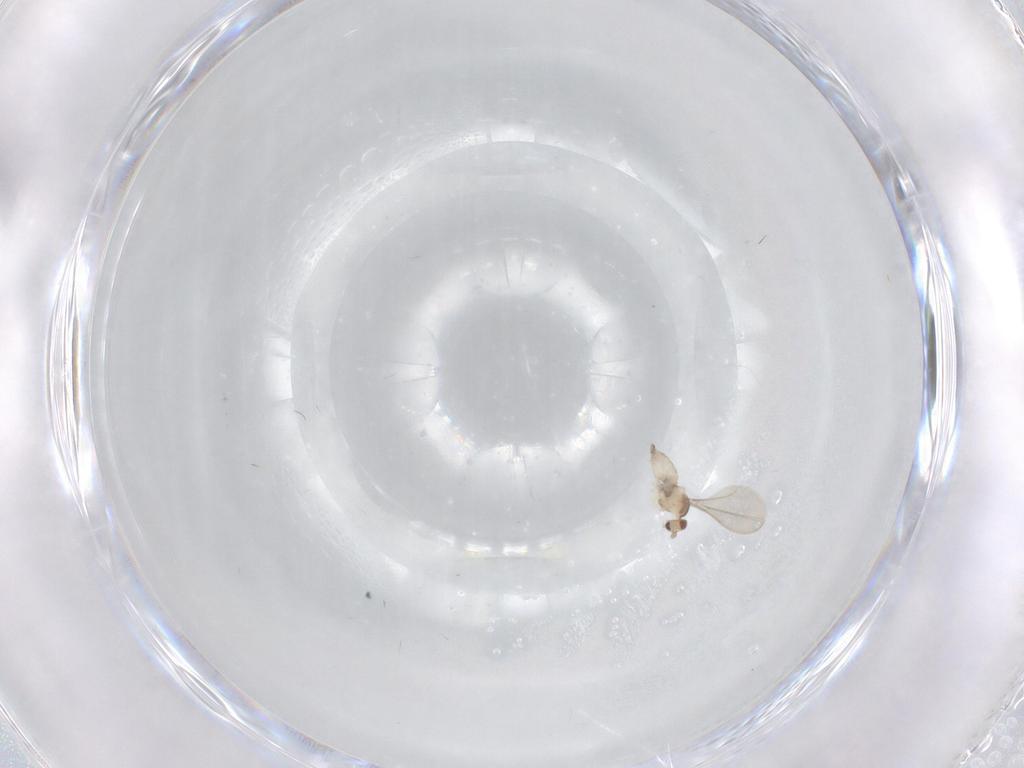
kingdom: Animalia
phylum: Arthropoda
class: Insecta
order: Diptera
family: Cecidomyiidae
